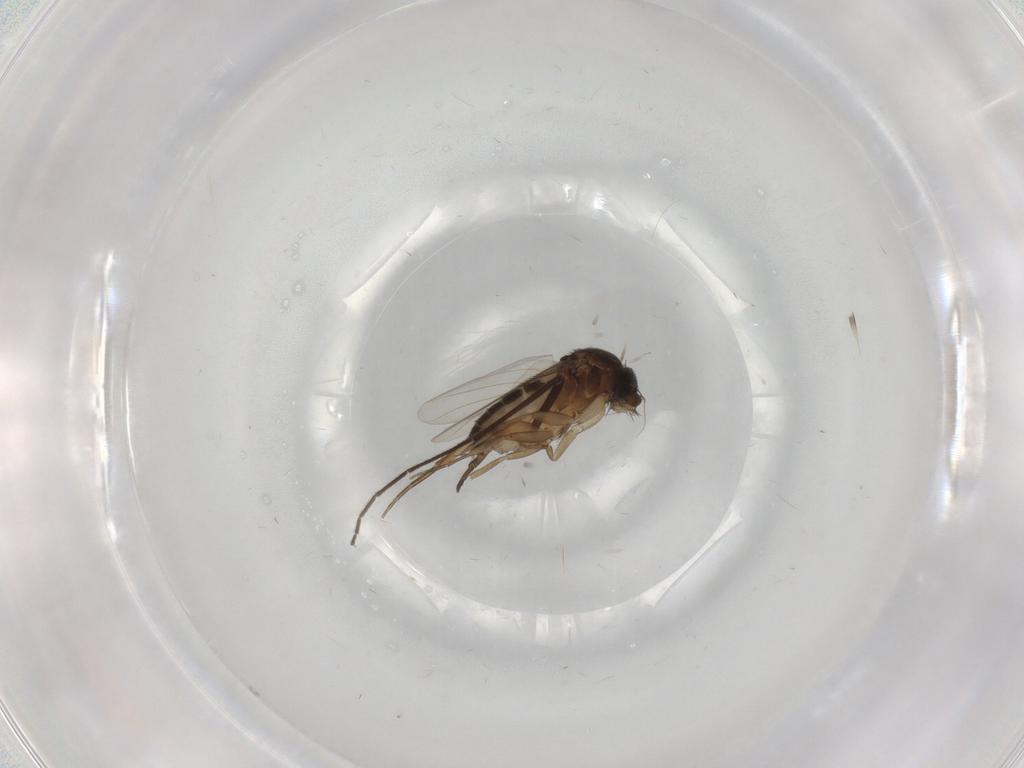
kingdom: Animalia
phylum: Arthropoda
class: Insecta
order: Diptera
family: Phoridae
